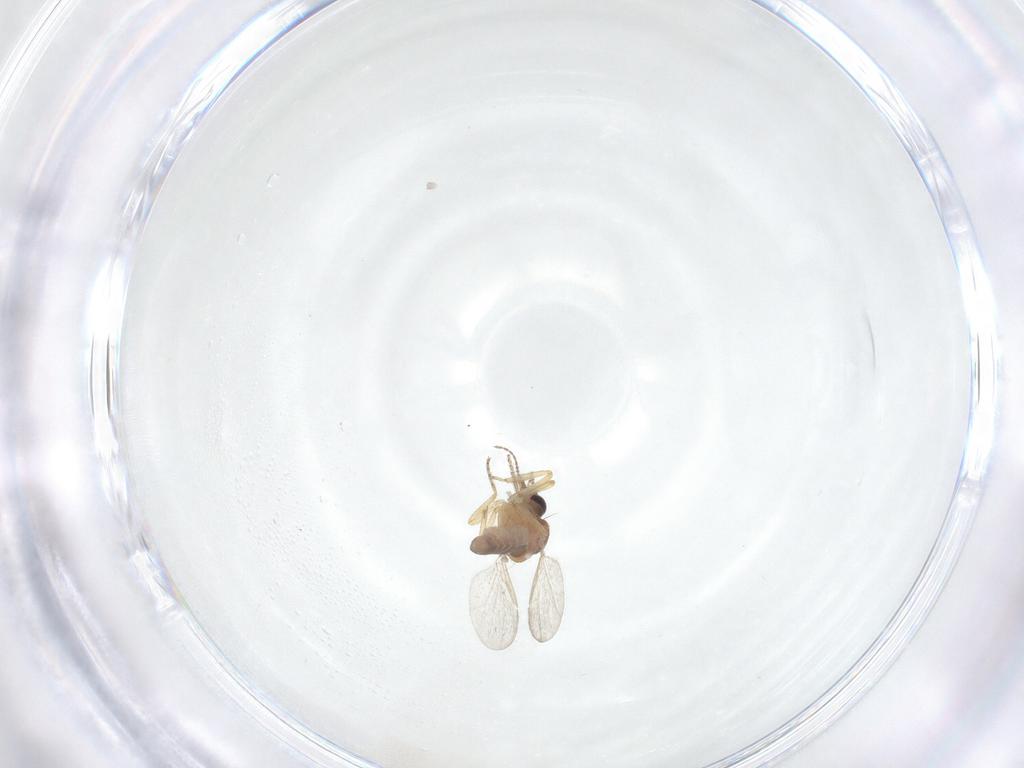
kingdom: Animalia
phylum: Arthropoda
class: Insecta
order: Diptera
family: Ceratopogonidae
